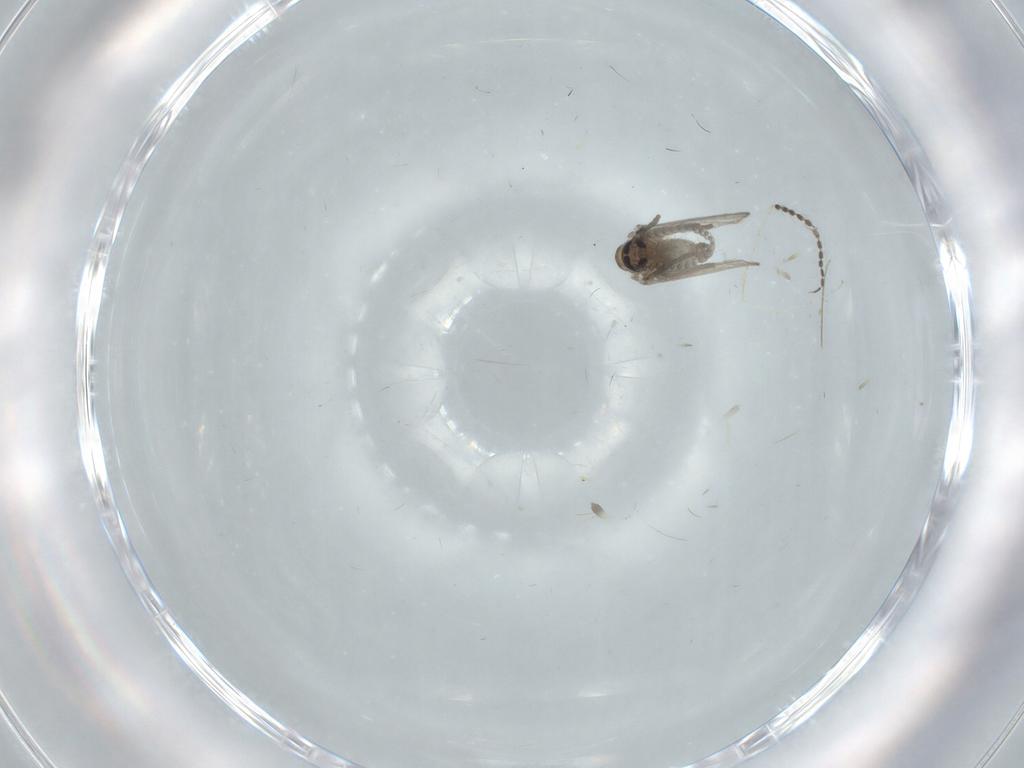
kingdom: Animalia
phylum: Arthropoda
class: Insecta
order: Diptera
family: Psychodidae
